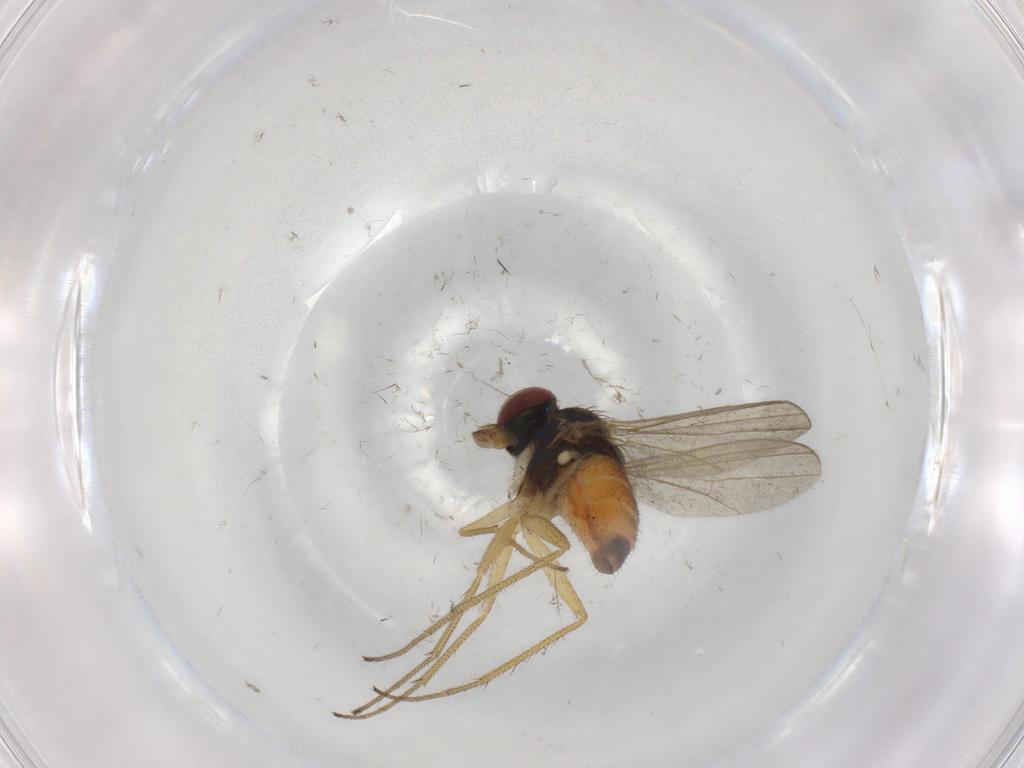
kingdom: Animalia
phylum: Arthropoda
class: Insecta
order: Diptera
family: Dolichopodidae
